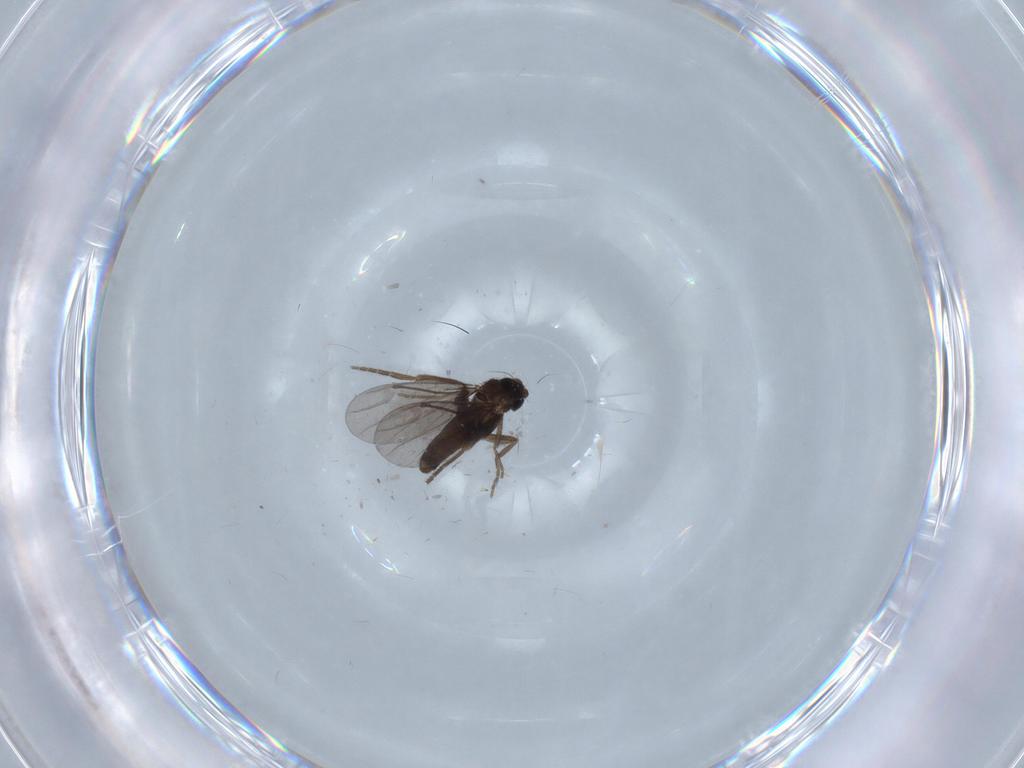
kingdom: Animalia
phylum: Arthropoda
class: Insecta
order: Diptera
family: Cecidomyiidae
